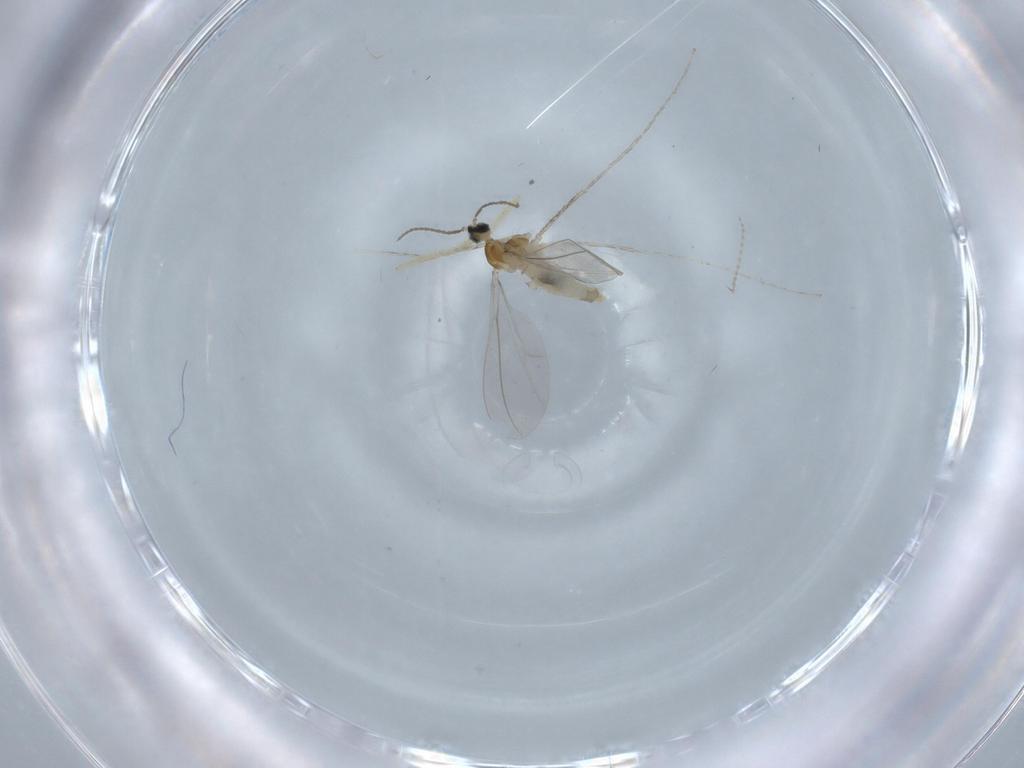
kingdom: Animalia
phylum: Arthropoda
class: Insecta
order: Diptera
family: Cecidomyiidae
